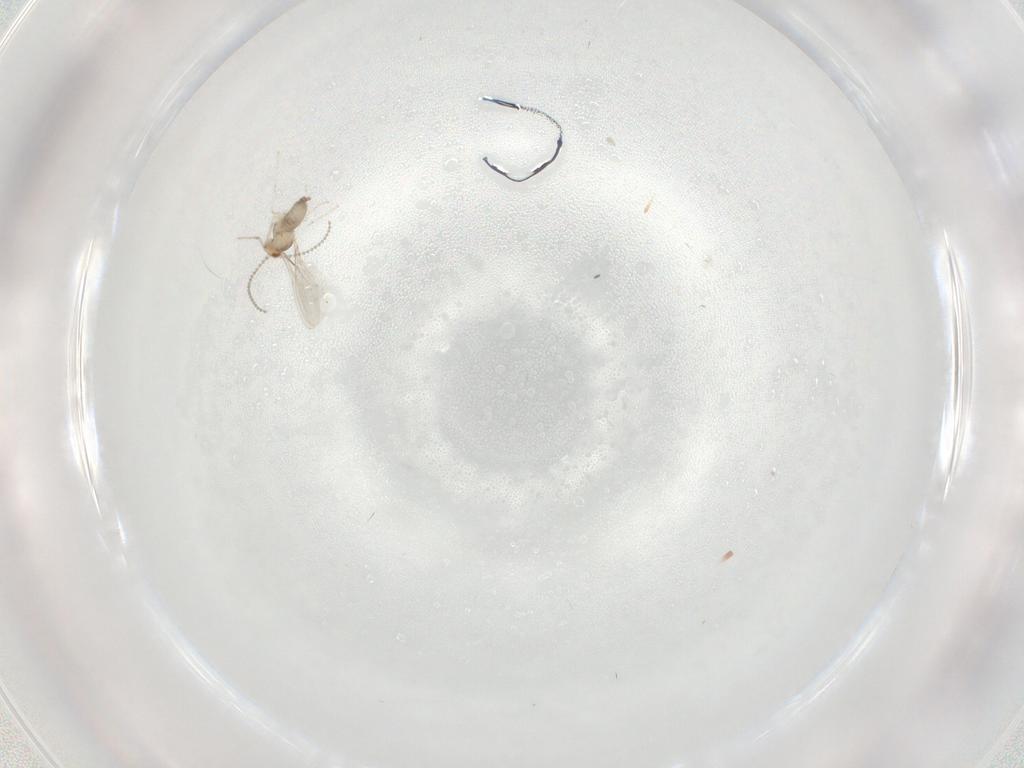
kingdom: Animalia
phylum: Arthropoda
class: Insecta
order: Diptera
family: Cecidomyiidae
